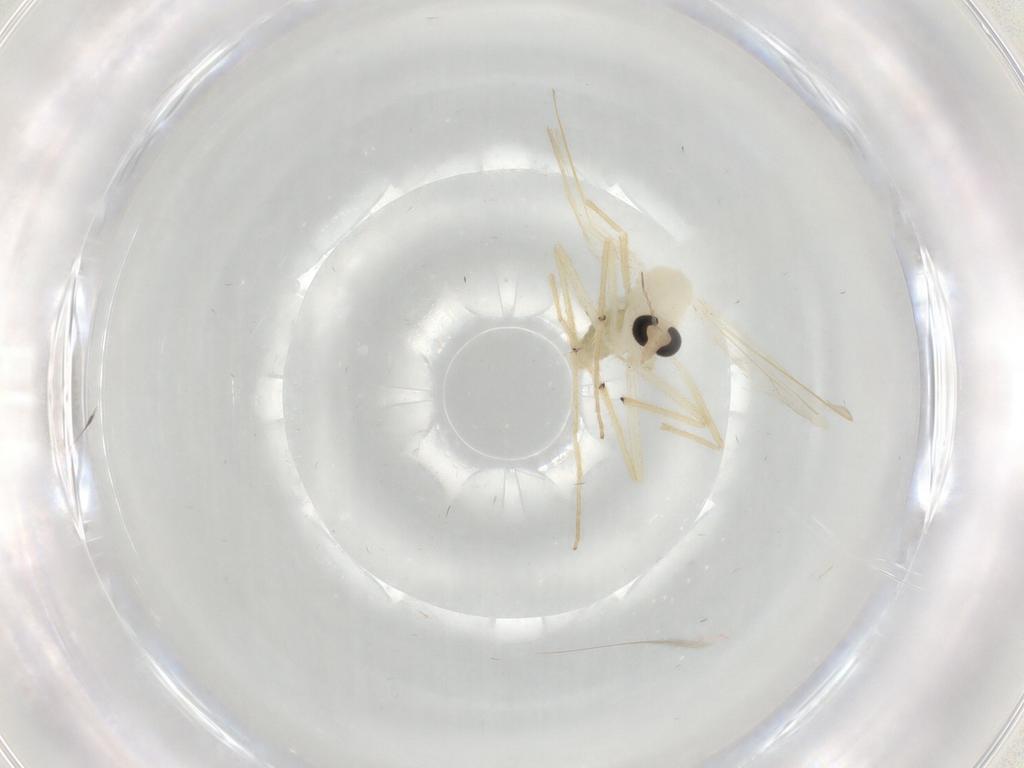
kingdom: Animalia
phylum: Arthropoda
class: Insecta
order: Diptera
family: Chironomidae
